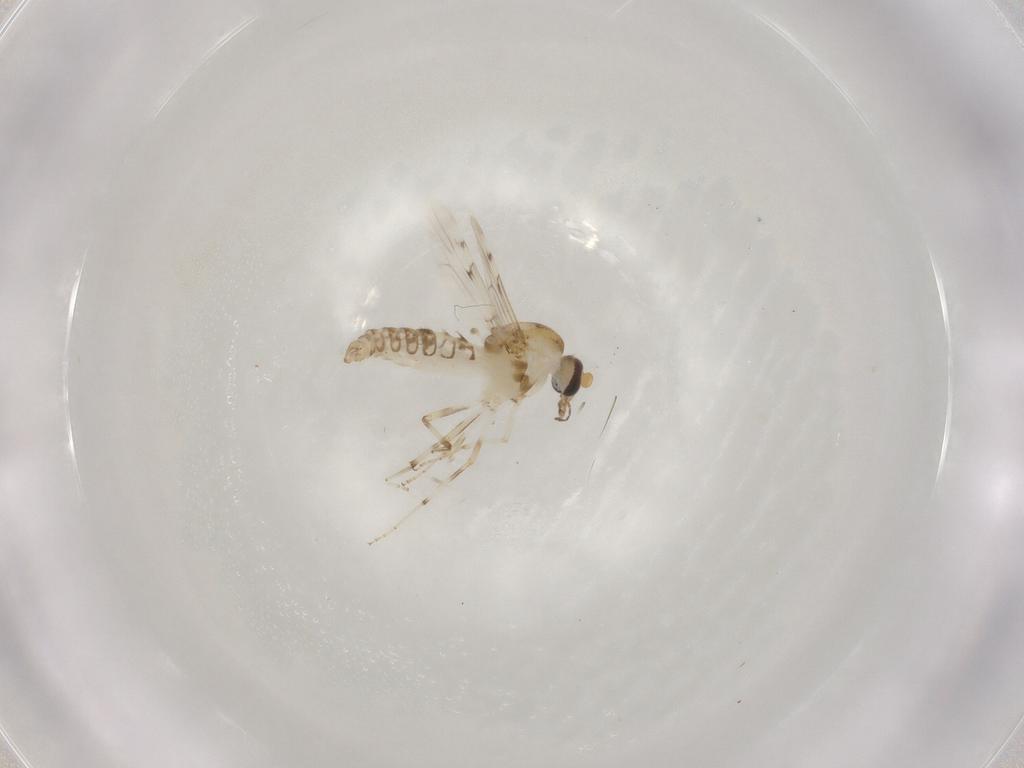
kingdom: Animalia
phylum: Arthropoda
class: Insecta
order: Diptera
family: Ceratopogonidae
